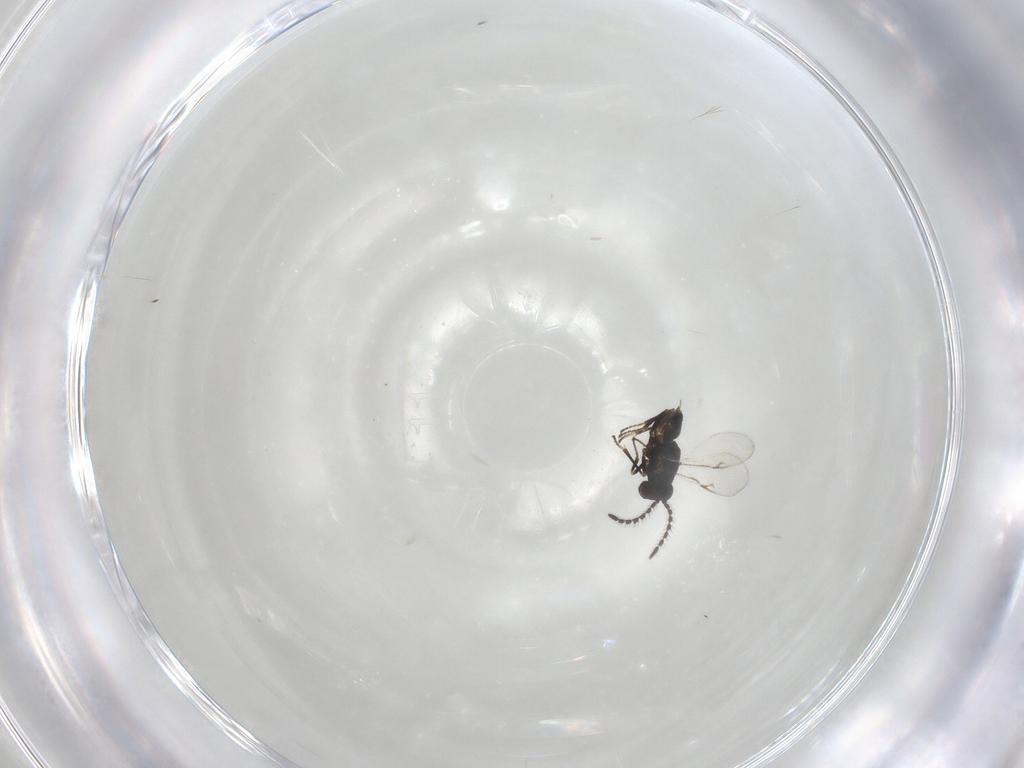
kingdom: Animalia
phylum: Arthropoda
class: Insecta
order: Hymenoptera
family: Encyrtidae
